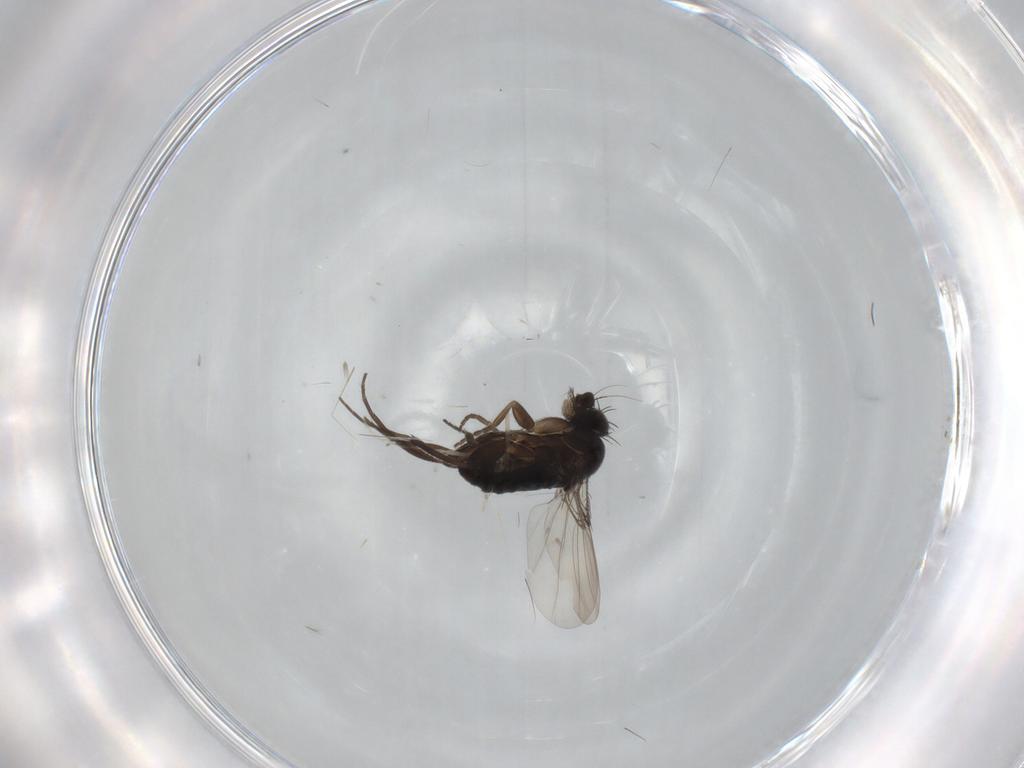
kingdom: Animalia
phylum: Arthropoda
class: Insecta
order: Diptera
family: Phoridae
